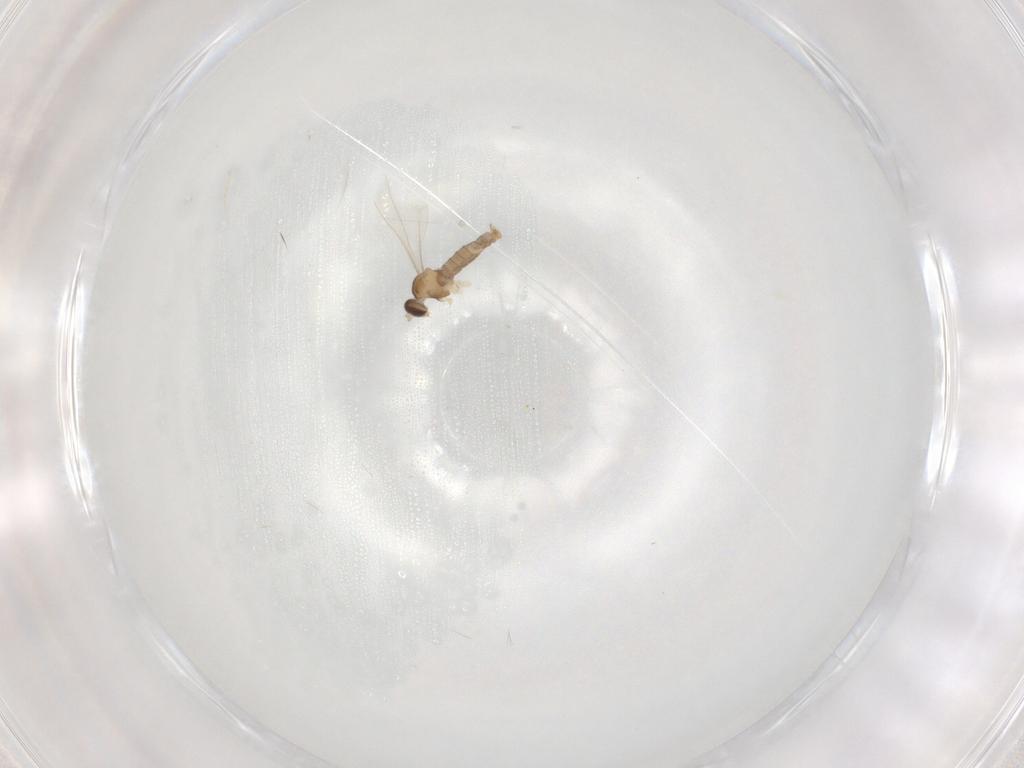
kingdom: Animalia
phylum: Arthropoda
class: Insecta
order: Diptera
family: Cecidomyiidae
